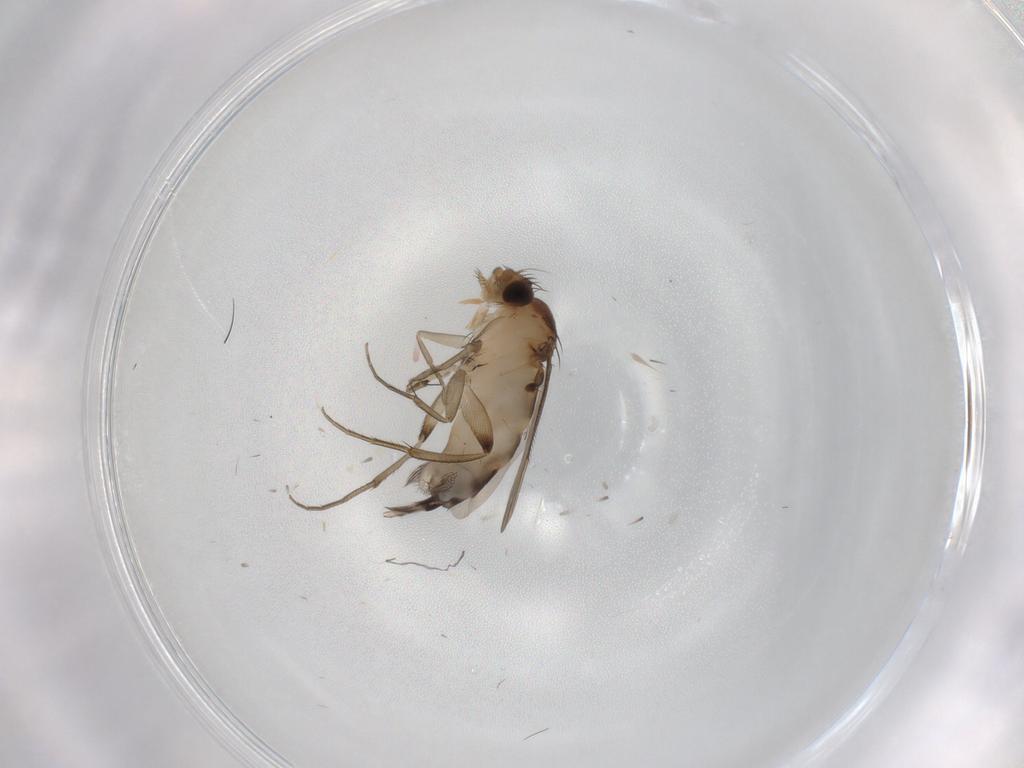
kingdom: Animalia
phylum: Arthropoda
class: Insecta
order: Diptera
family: Phoridae
